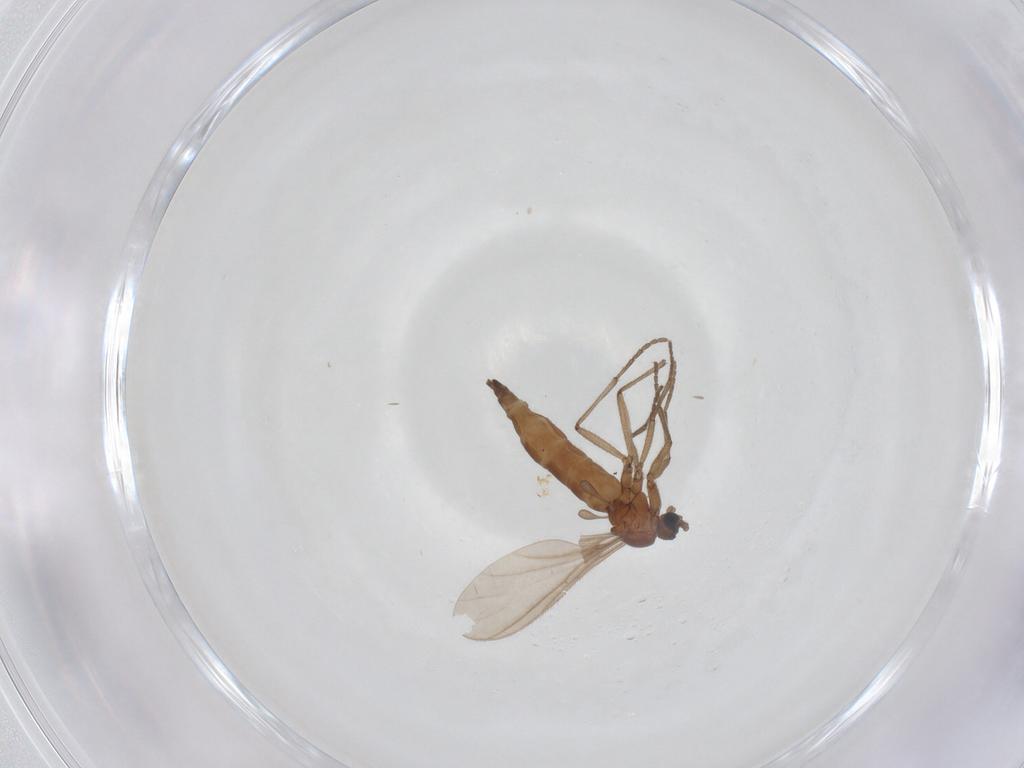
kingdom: Animalia
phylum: Arthropoda
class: Insecta
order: Diptera
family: Sciaridae
